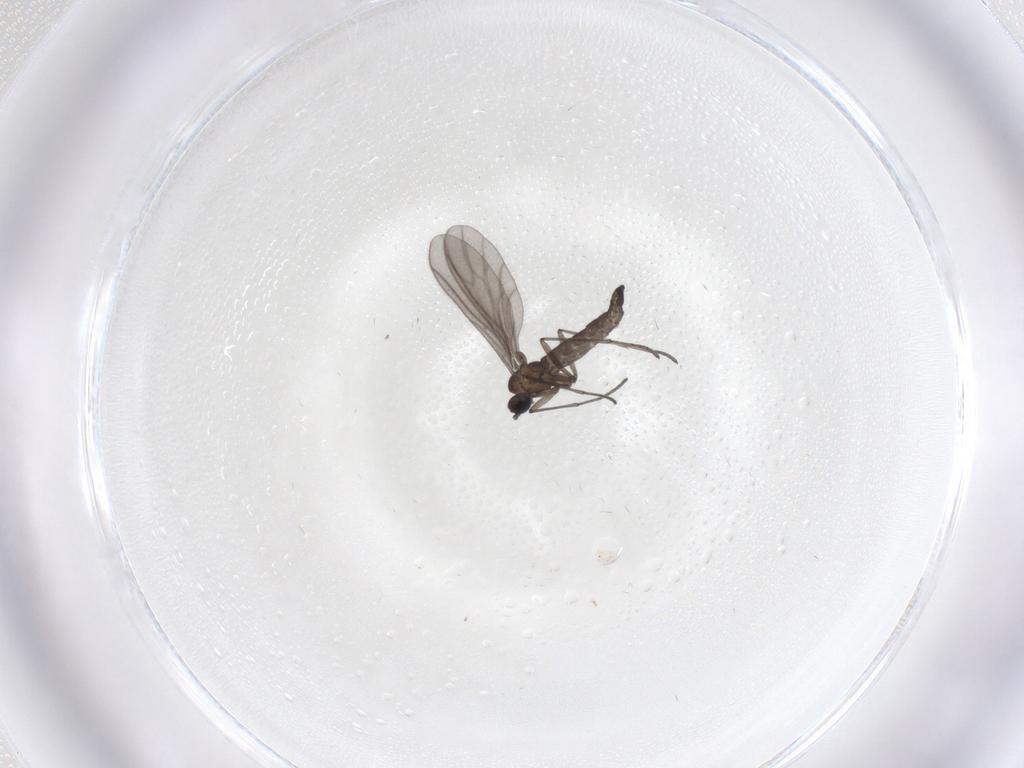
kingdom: Animalia
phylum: Arthropoda
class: Insecta
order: Diptera
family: Sciaridae
